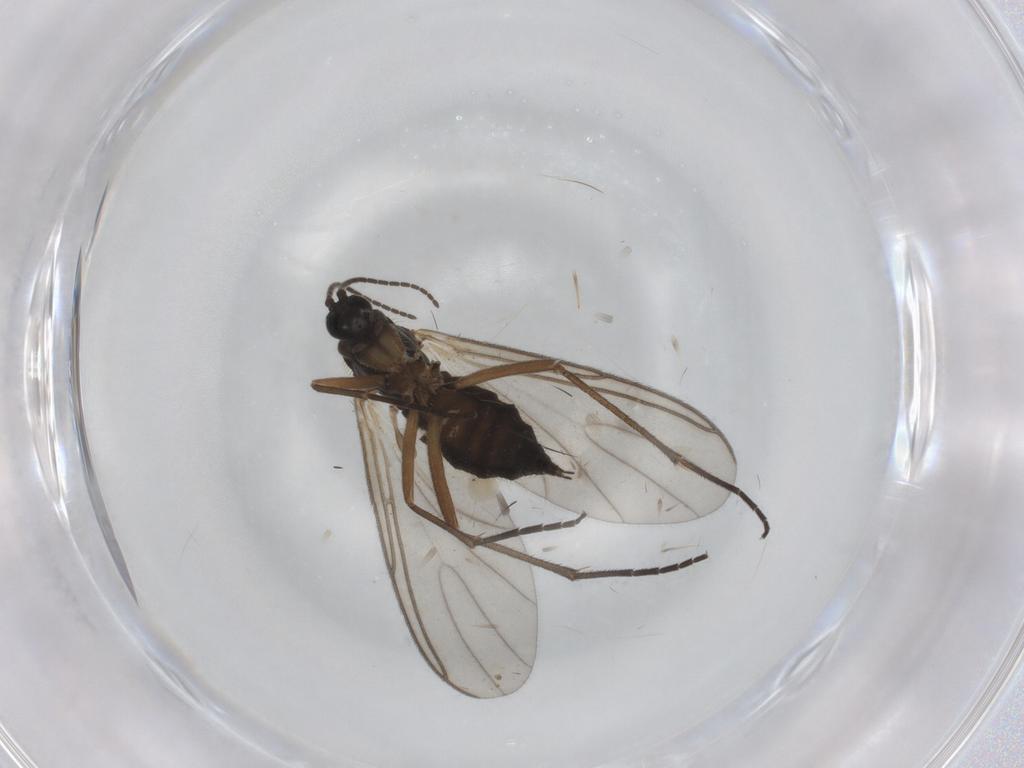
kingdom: Animalia
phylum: Arthropoda
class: Insecta
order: Diptera
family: Sciaridae
